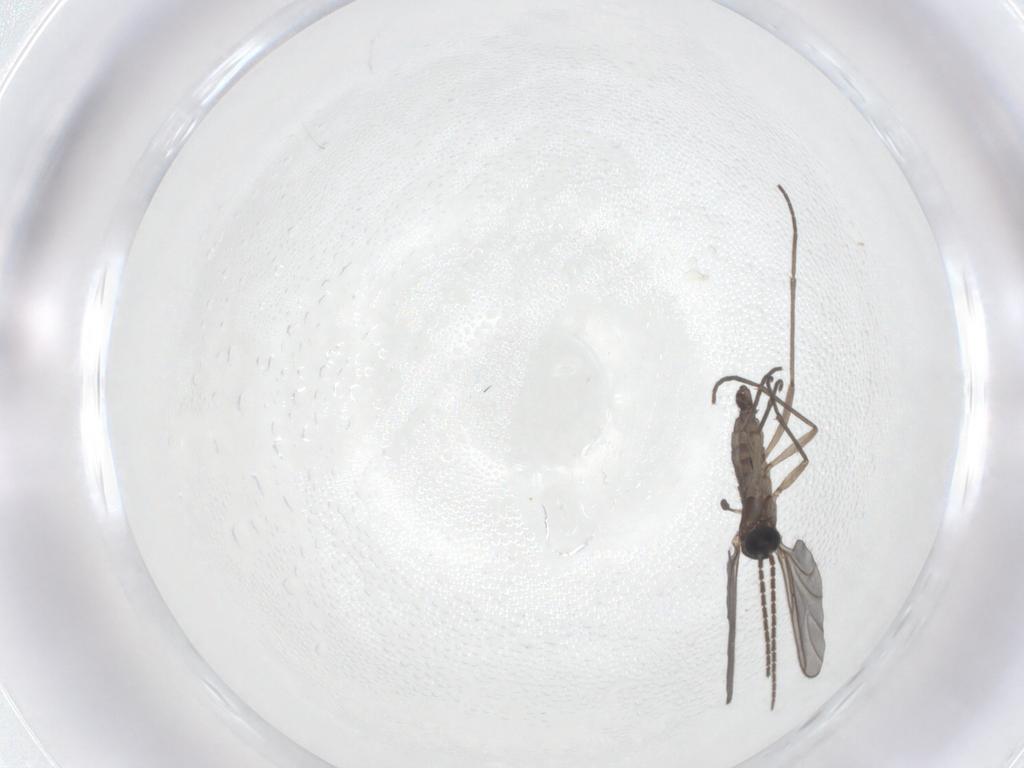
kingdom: Animalia
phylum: Arthropoda
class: Insecta
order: Diptera
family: Sciaridae
